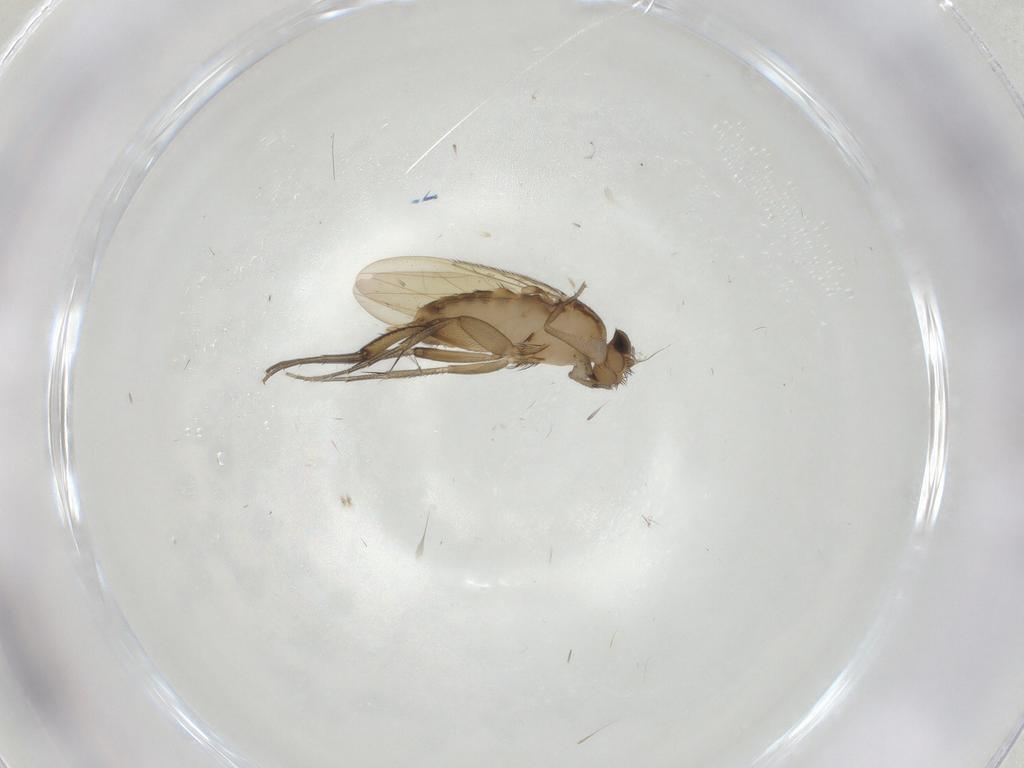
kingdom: Animalia
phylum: Arthropoda
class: Insecta
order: Diptera
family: Phoridae
